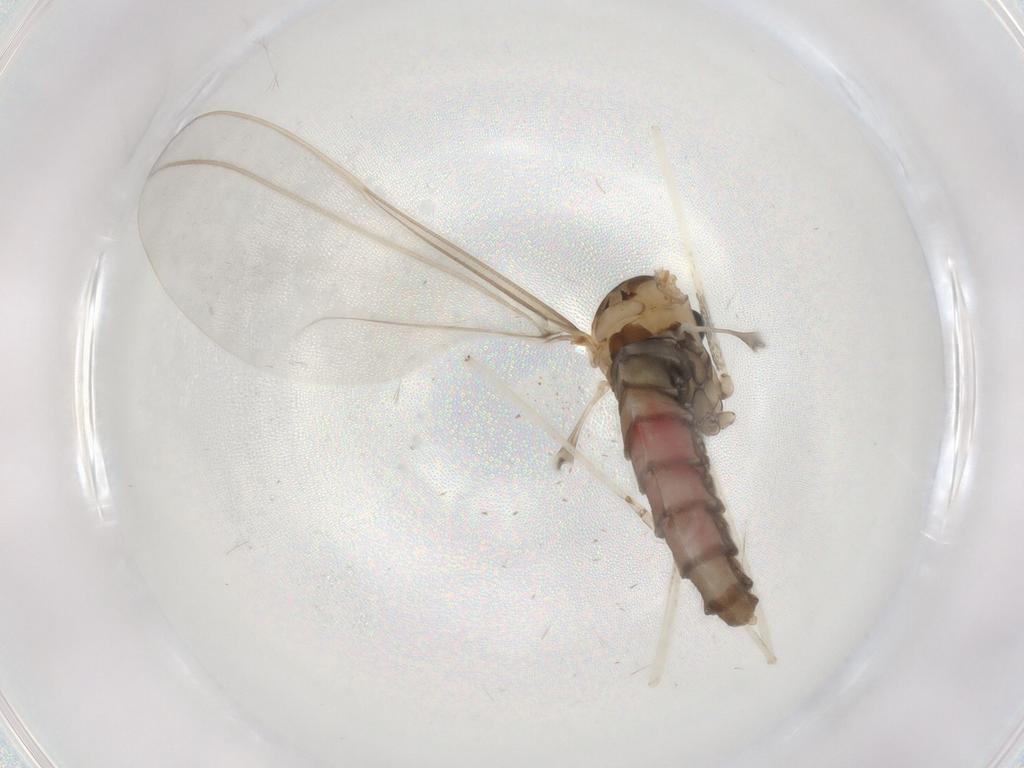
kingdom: Animalia
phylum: Arthropoda
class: Insecta
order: Diptera
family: Cecidomyiidae
